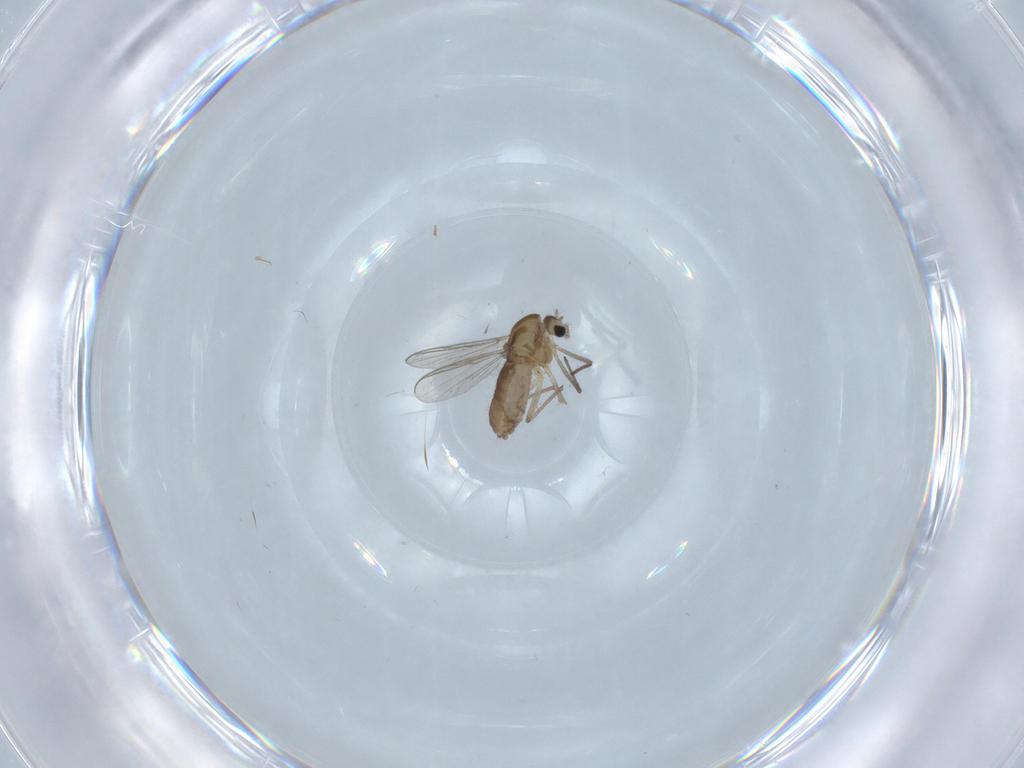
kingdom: Animalia
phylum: Arthropoda
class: Insecta
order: Diptera
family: Chironomidae
